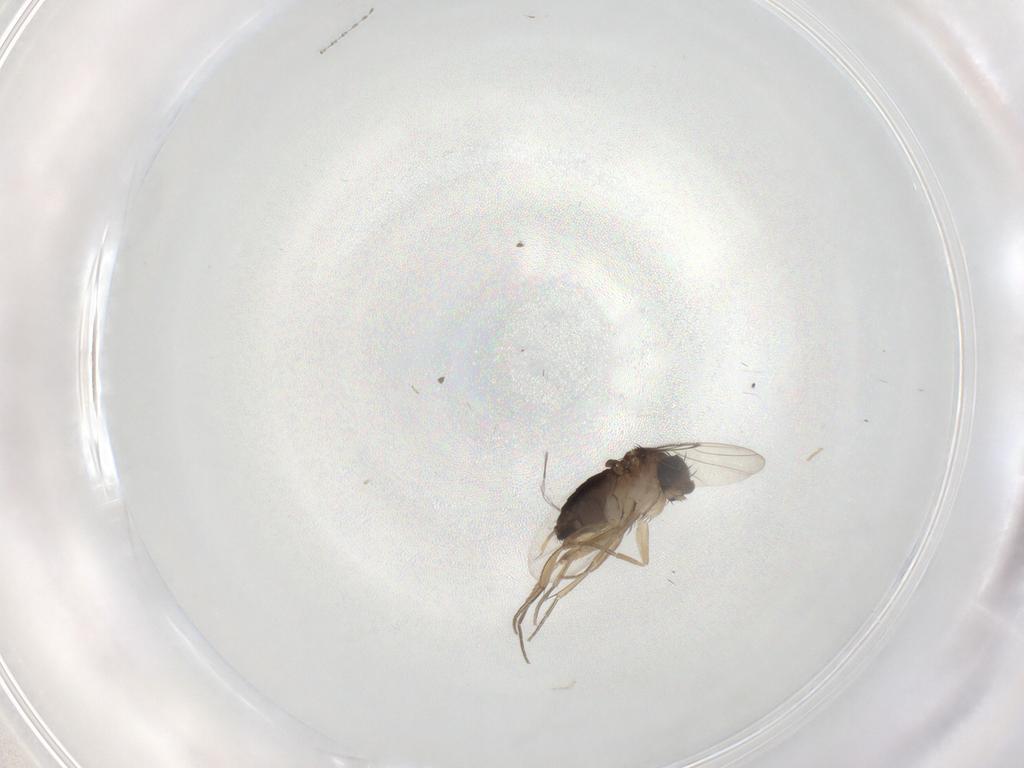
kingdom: Animalia
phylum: Arthropoda
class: Insecta
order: Diptera
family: Cecidomyiidae
